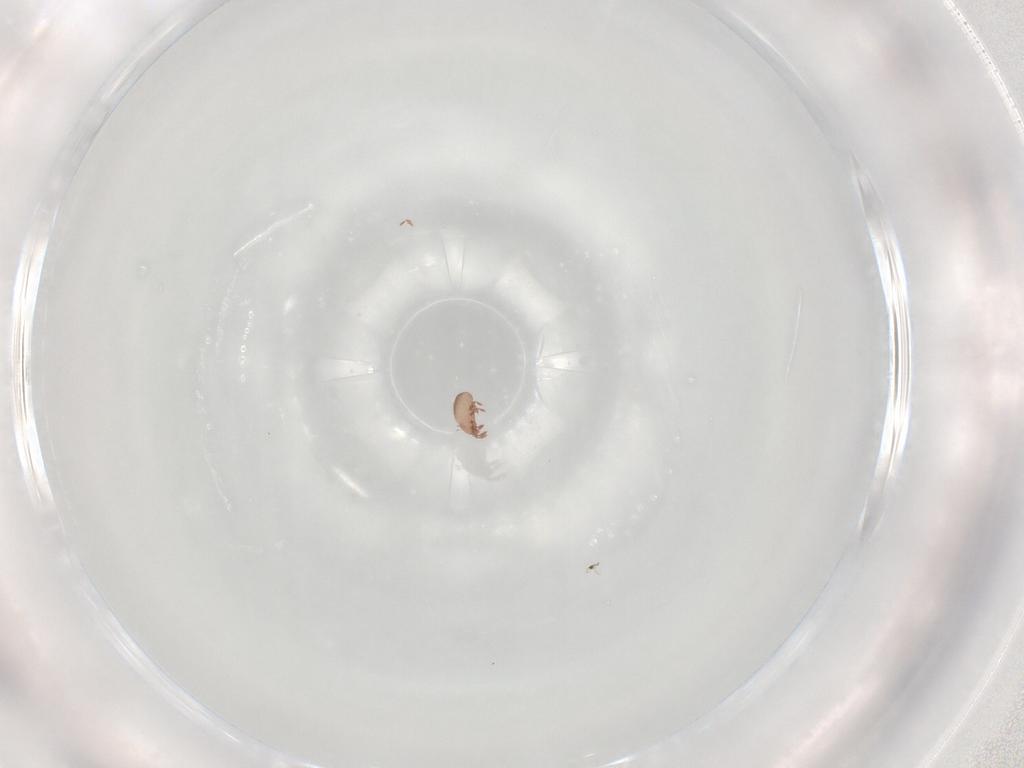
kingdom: Animalia
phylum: Arthropoda
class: Arachnida
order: Sarcoptiformes
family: Eremaeidae
